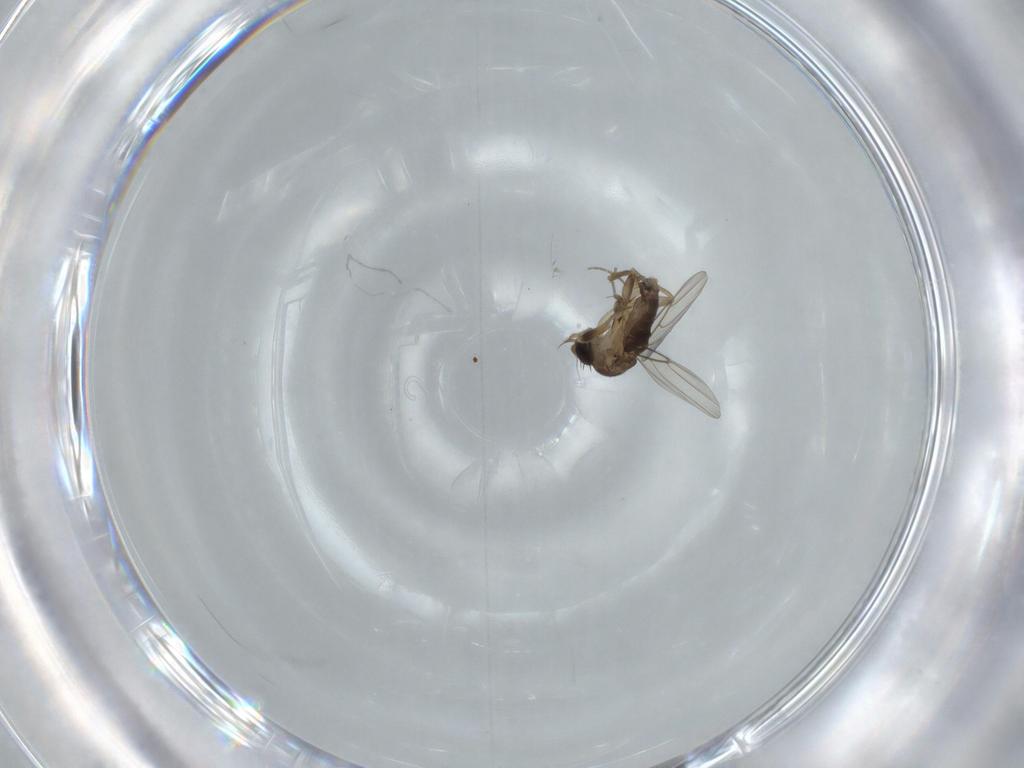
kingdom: Animalia
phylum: Arthropoda
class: Insecta
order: Diptera
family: Phoridae
